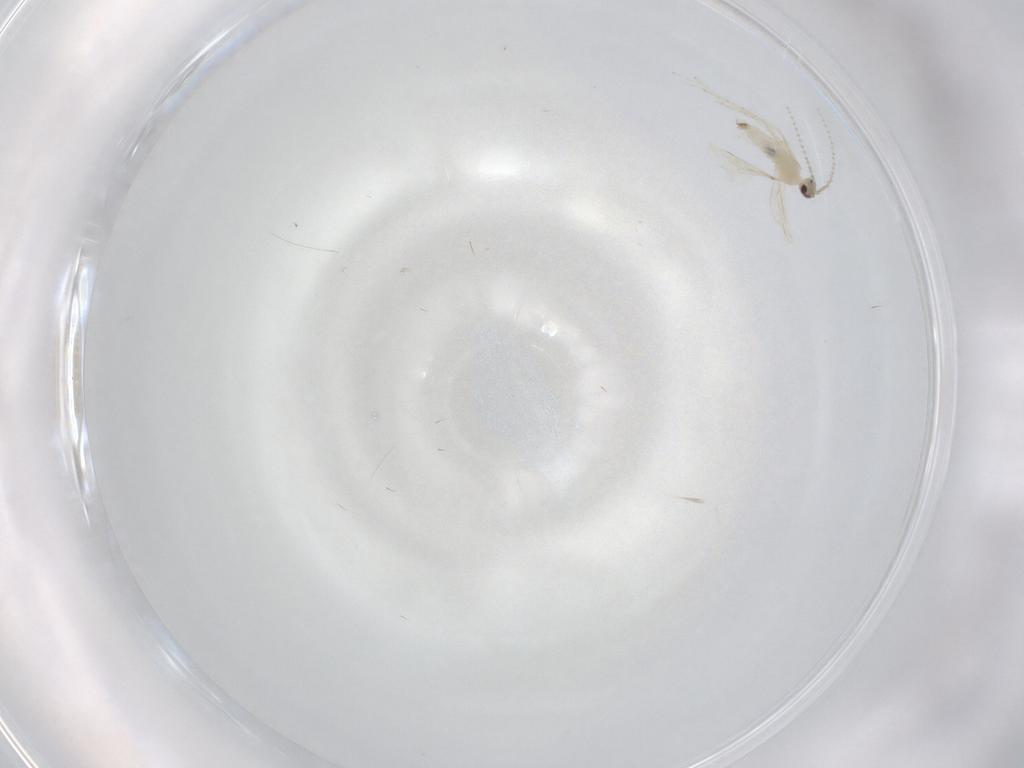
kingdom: Animalia
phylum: Arthropoda
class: Insecta
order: Diptera
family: Cecidomyiidae
